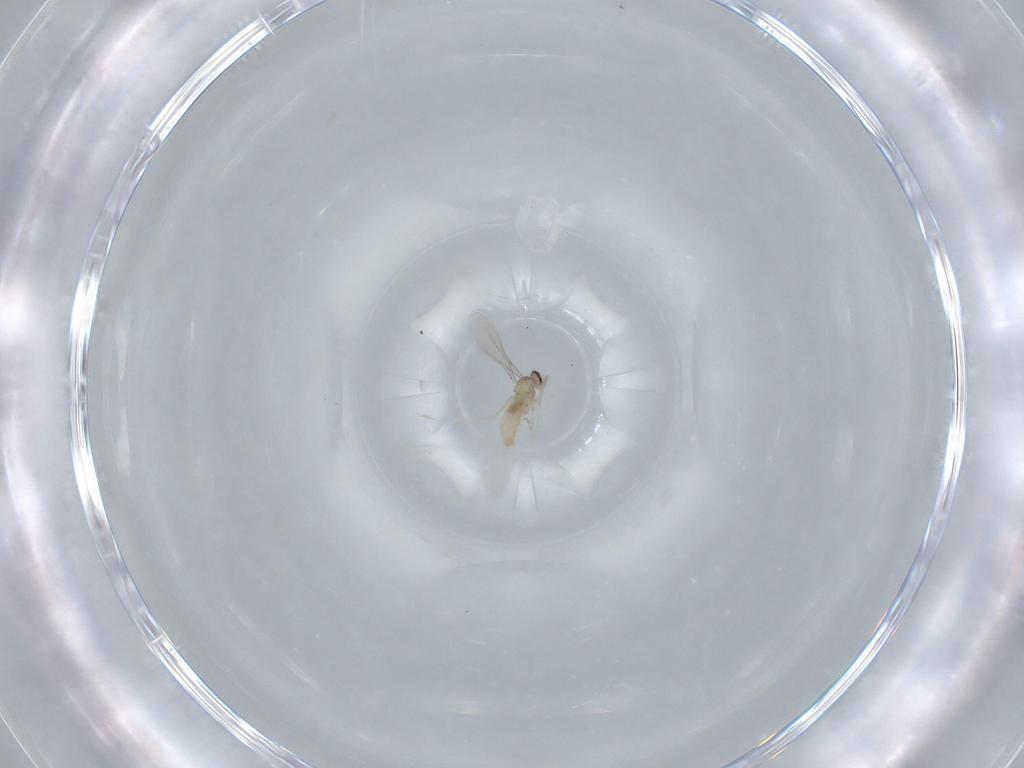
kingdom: Animalia
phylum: Arthropoda
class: Insecta
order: Diptera
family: Cecidomyiidae
